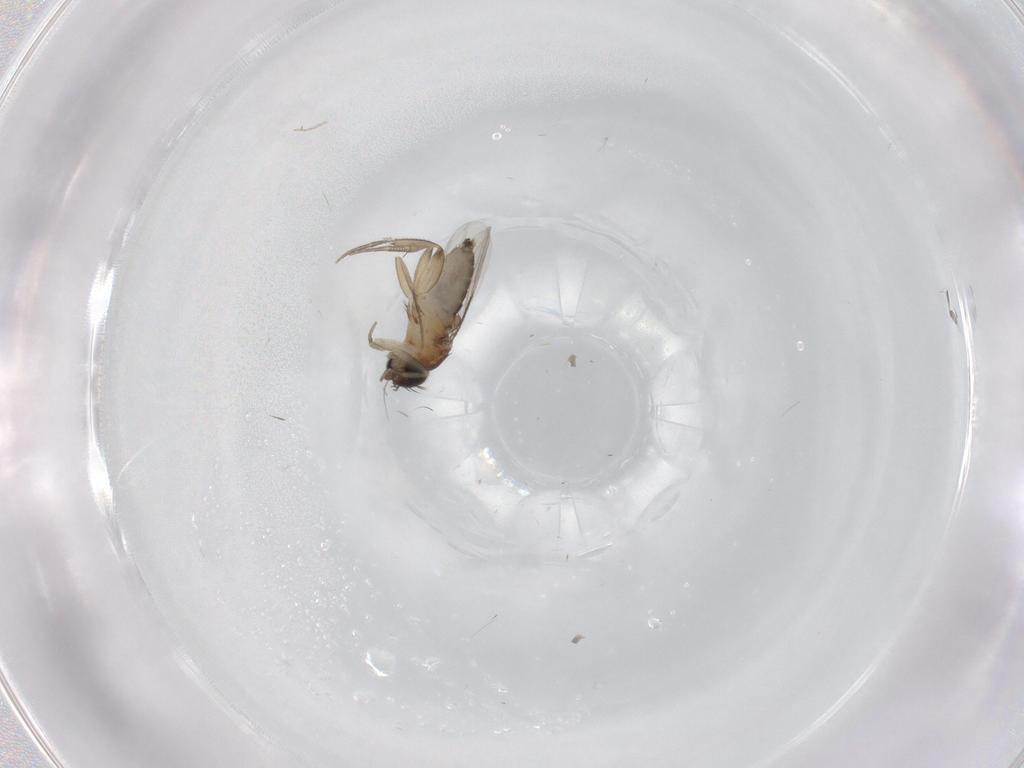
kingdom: Animalia
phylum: Arthropoda
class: Insecta
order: Diptera
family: Phoridae
